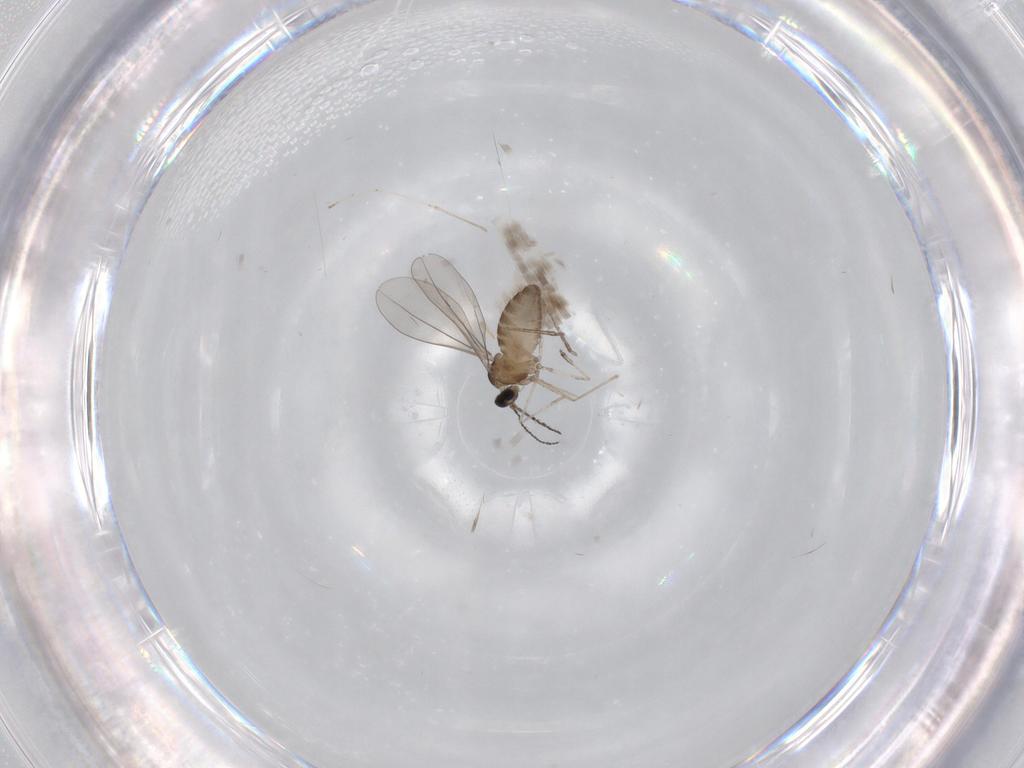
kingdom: Animalia
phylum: Arthropoda
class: Insecta
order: Diptera
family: Cecidomyiidae
